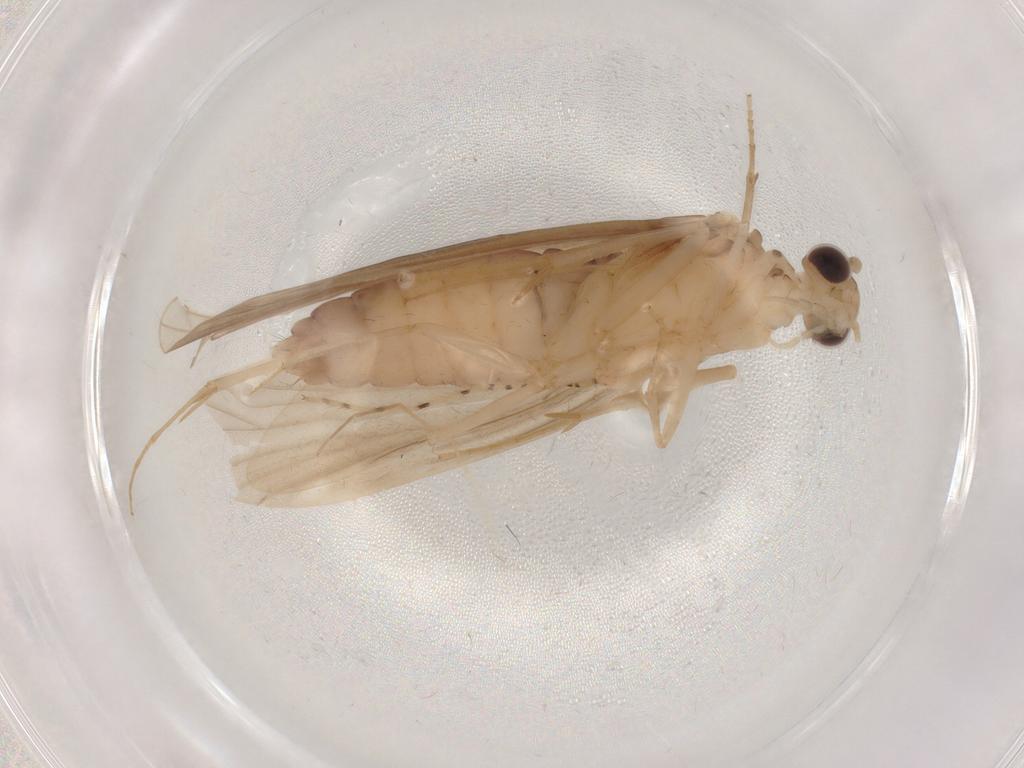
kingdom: Animalia
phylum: Arthropoda
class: Insecta
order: Trichoptera
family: Ecnomidae
